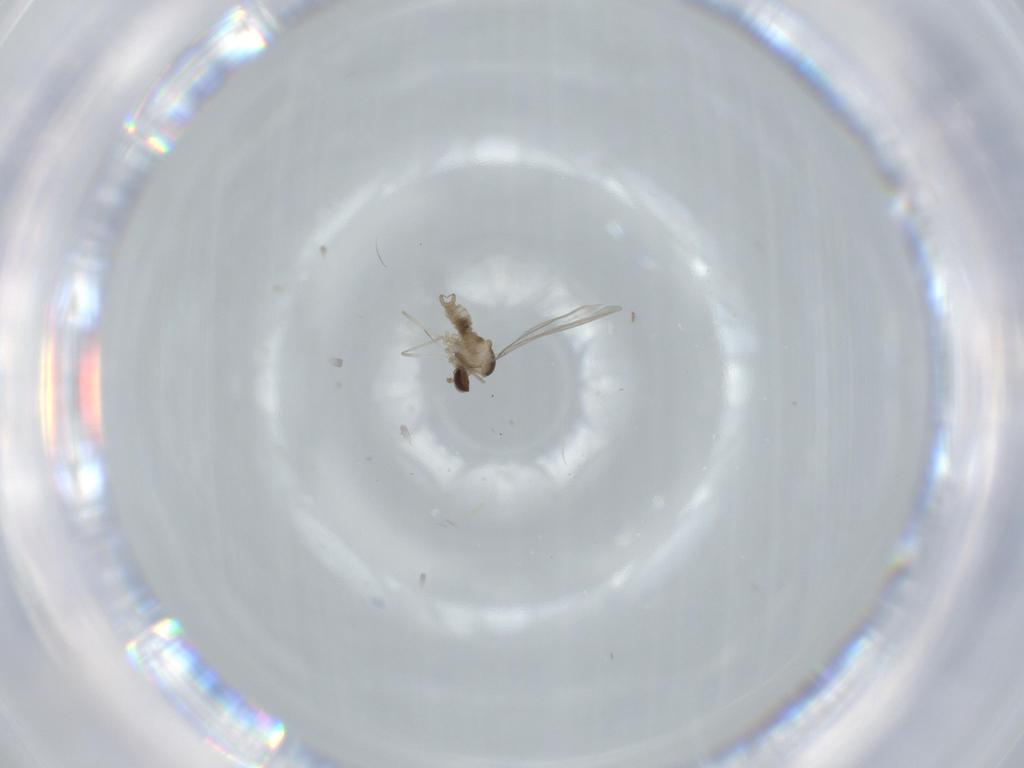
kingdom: Animalia
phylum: Arthropoda
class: Insecta
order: Diptera
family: Cecidomyiidae
